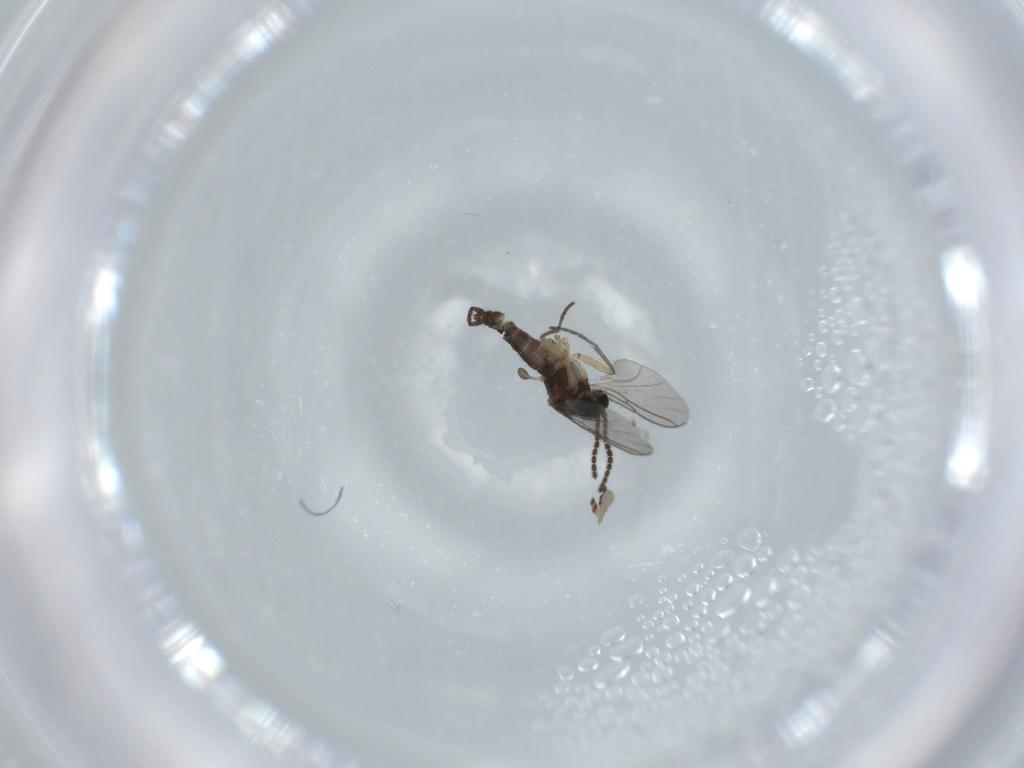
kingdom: Animalia
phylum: Arthropoda
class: Insecta
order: Diptera
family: Sciaridae
